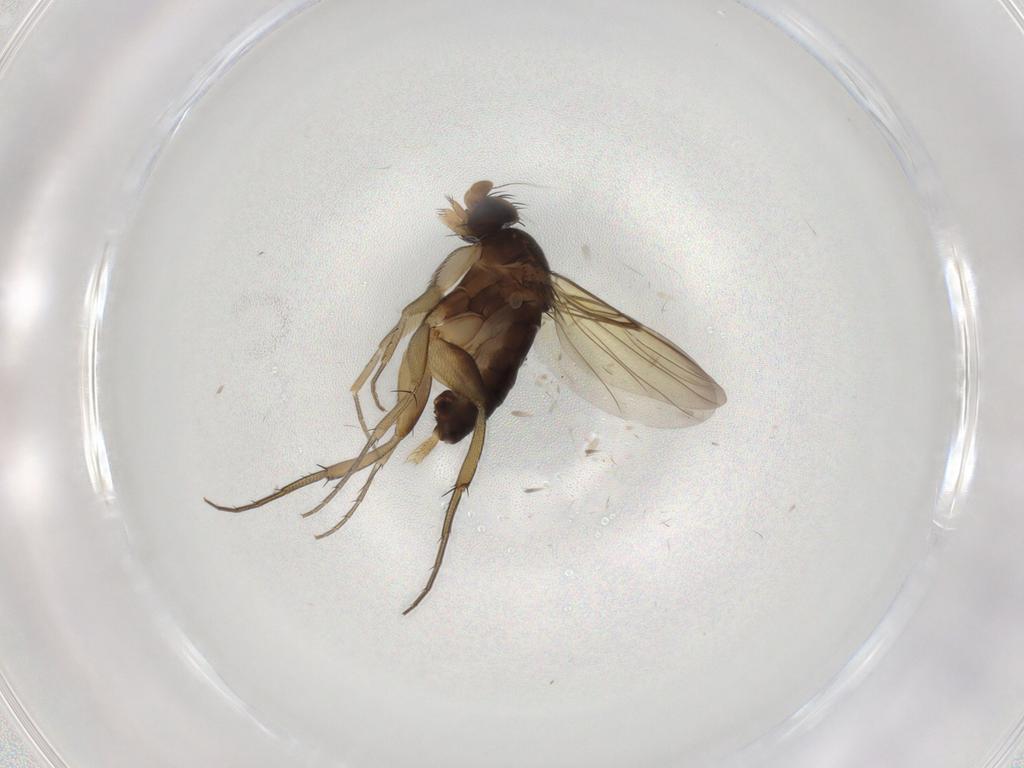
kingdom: Animalia
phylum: Arthropoda
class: Insecta
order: Diptera
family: Phoridae
